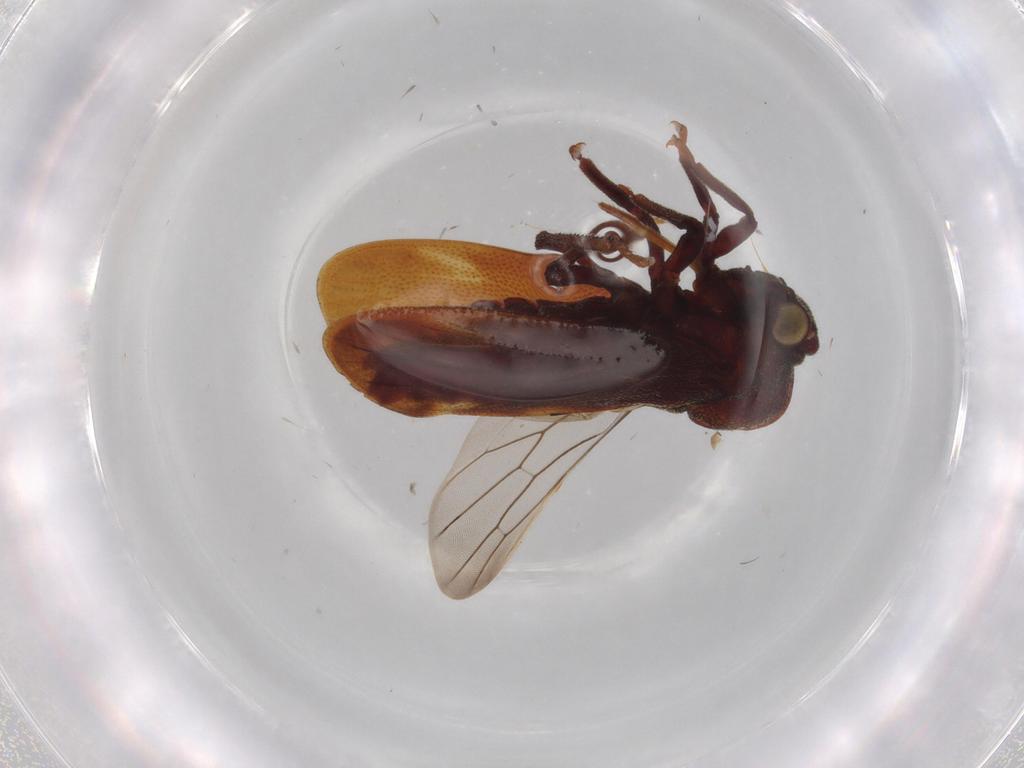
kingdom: Animalia
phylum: Arthropoda
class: Insecta
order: Hemiptera
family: Aetalionidae
